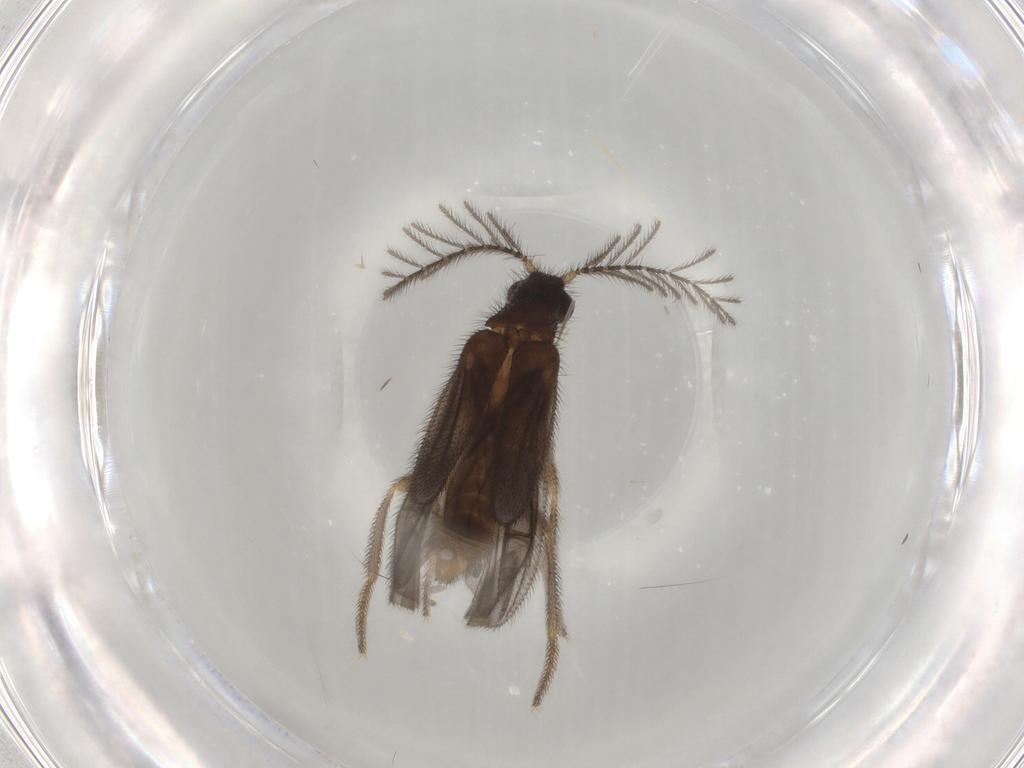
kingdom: Animalia
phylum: Arthropoda
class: Insecta
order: Coleoptera
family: Phengodidae
